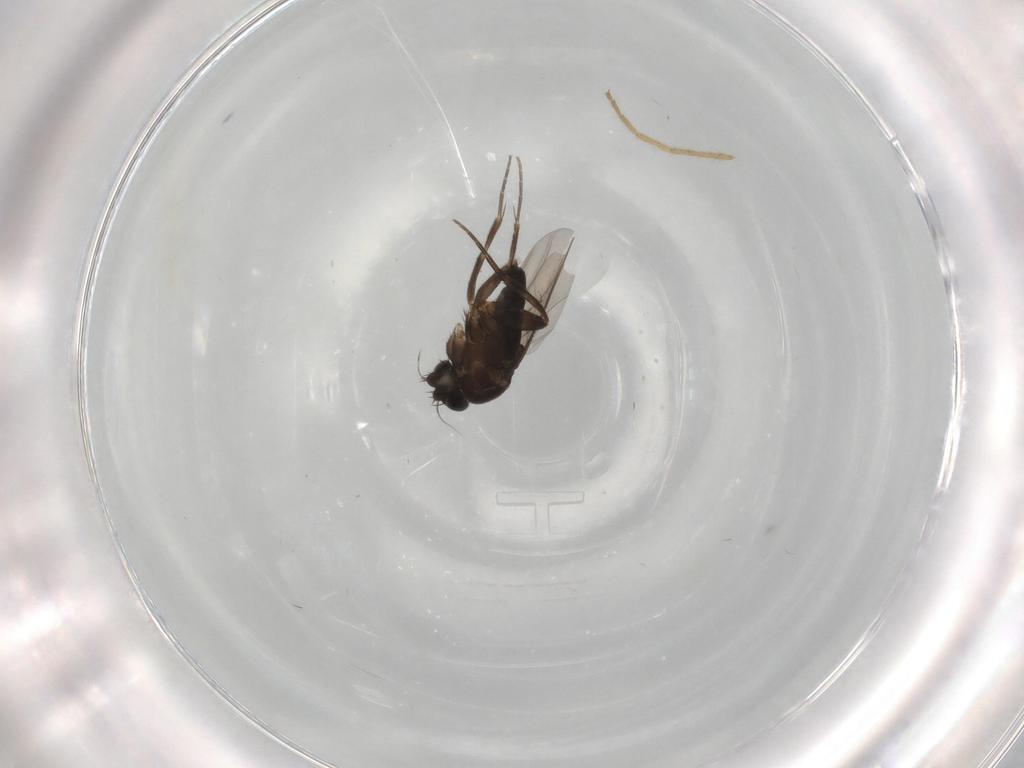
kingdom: Animalia
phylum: Arthropoda
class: Insecta
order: Diptera
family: Phoridae
